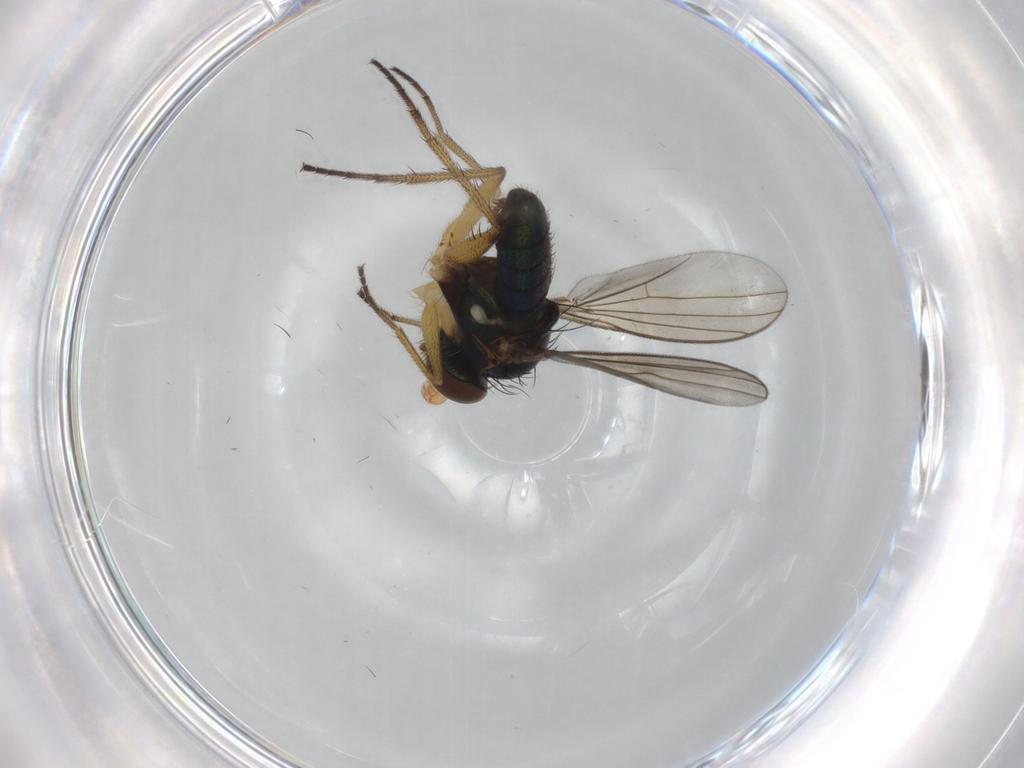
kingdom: Animalia
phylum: Arthropoda
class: Insecta
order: Diptera
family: Dolichopodidae
